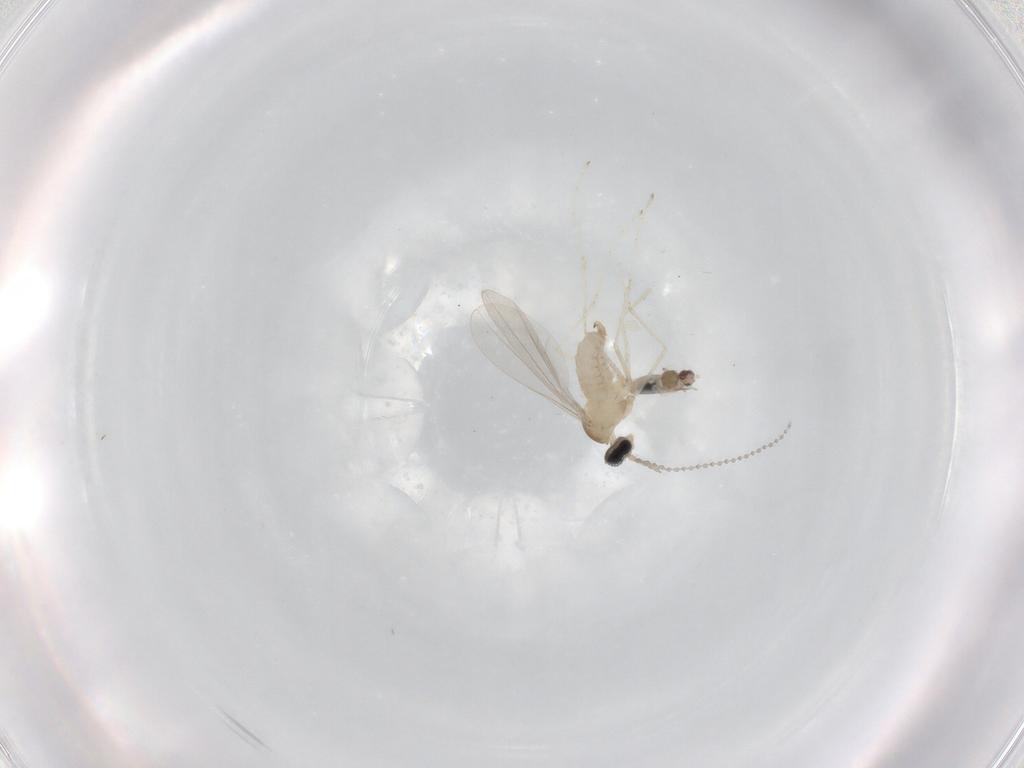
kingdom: Animalia
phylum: Arthropoda
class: Insecta
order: Diptera
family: Cecidomyiidae
